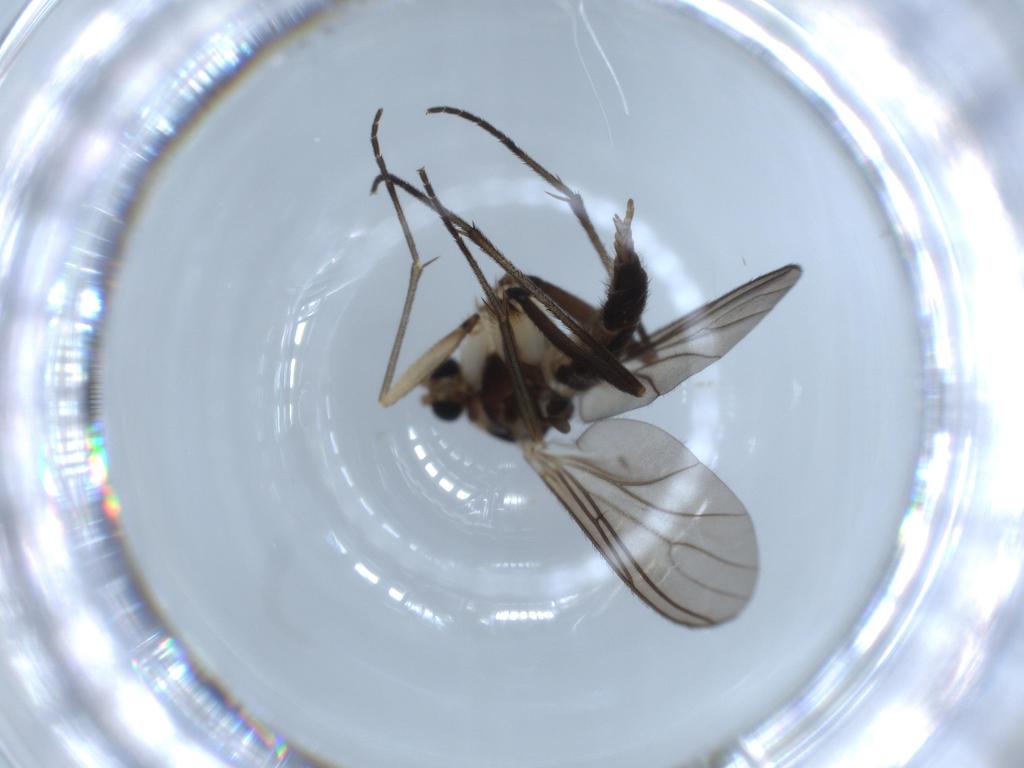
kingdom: Animalia
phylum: Arthropoda
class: Insecta
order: Diptera
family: Sciaridae
